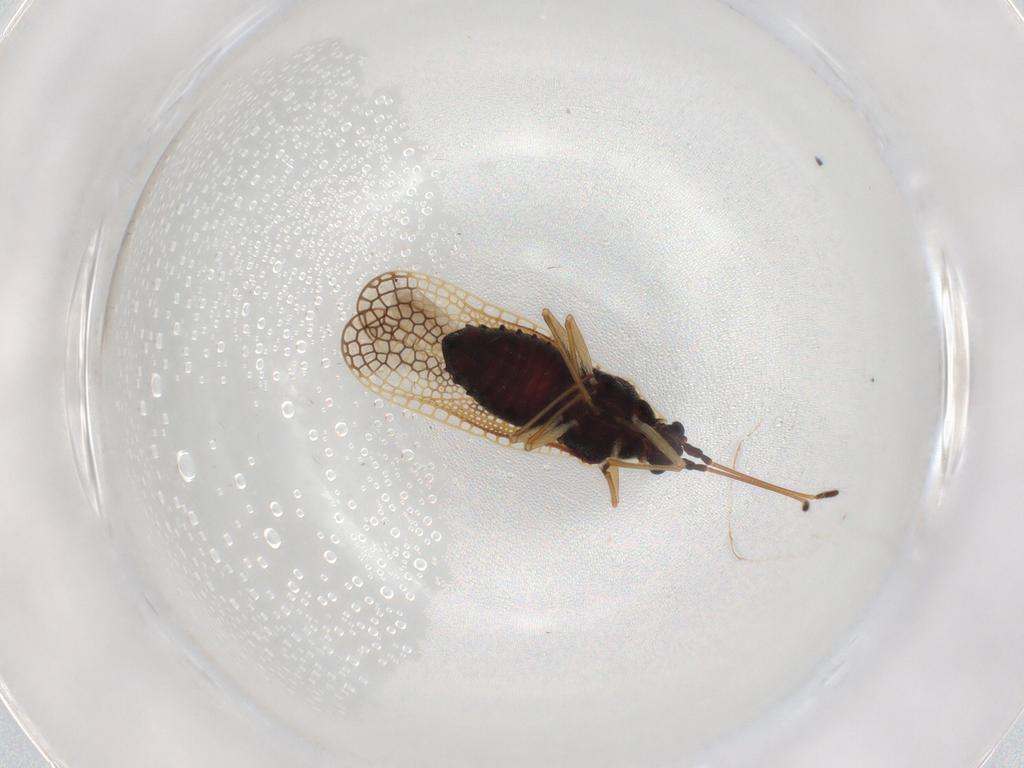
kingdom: Animalia
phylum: Arthropoda
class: Insecta
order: Hemiptera
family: Tingidae
